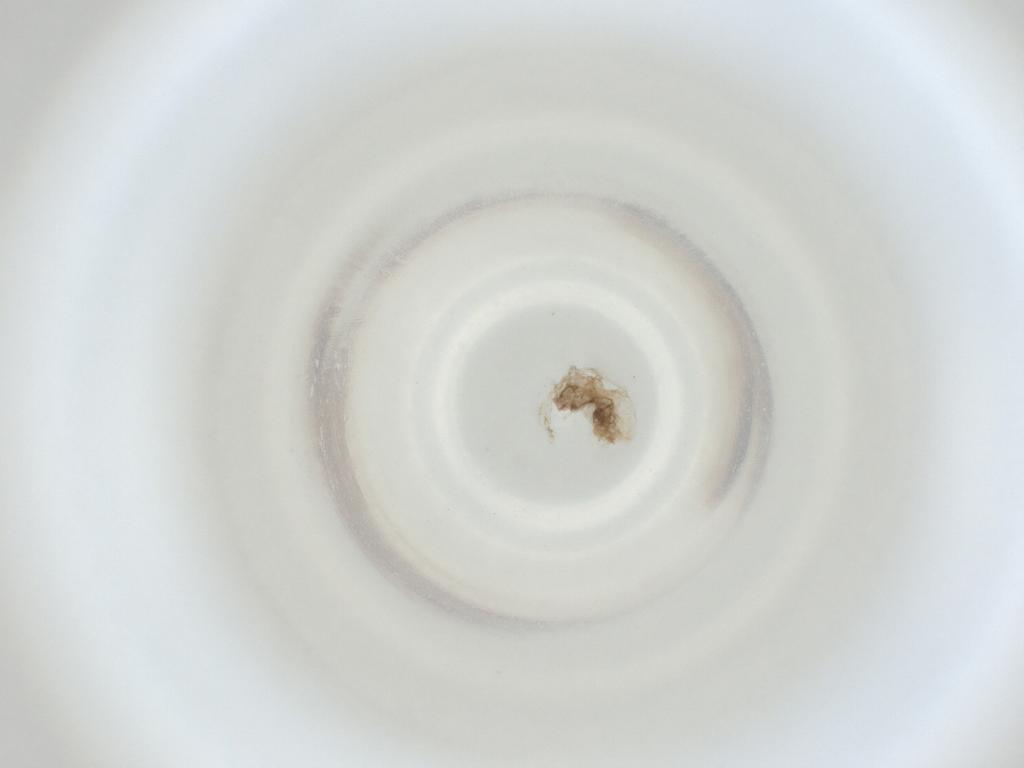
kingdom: Animalia
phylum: Arthropoda
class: Insecta
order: Diptera
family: Cecidomyiidae
